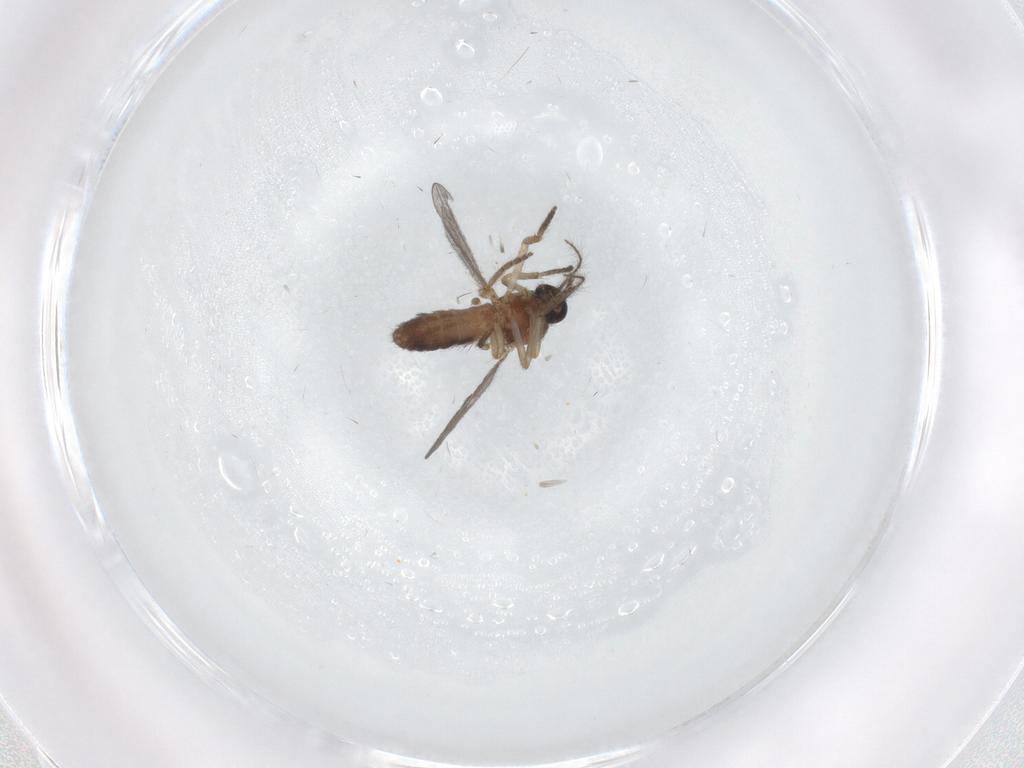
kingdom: Animalia
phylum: Arthropoda
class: Insecta
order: Diptera
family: Ceratopogonidae
